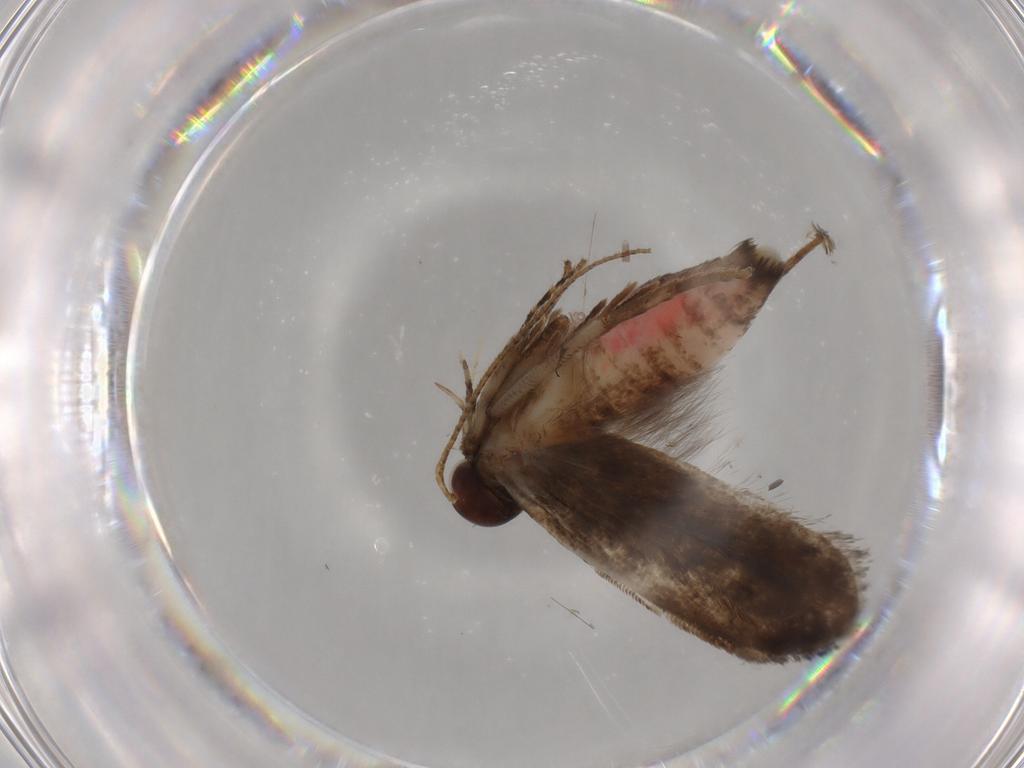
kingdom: Animalia
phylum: Arthropoda
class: Insecta
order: Lepidoptera
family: Gelechiidae
